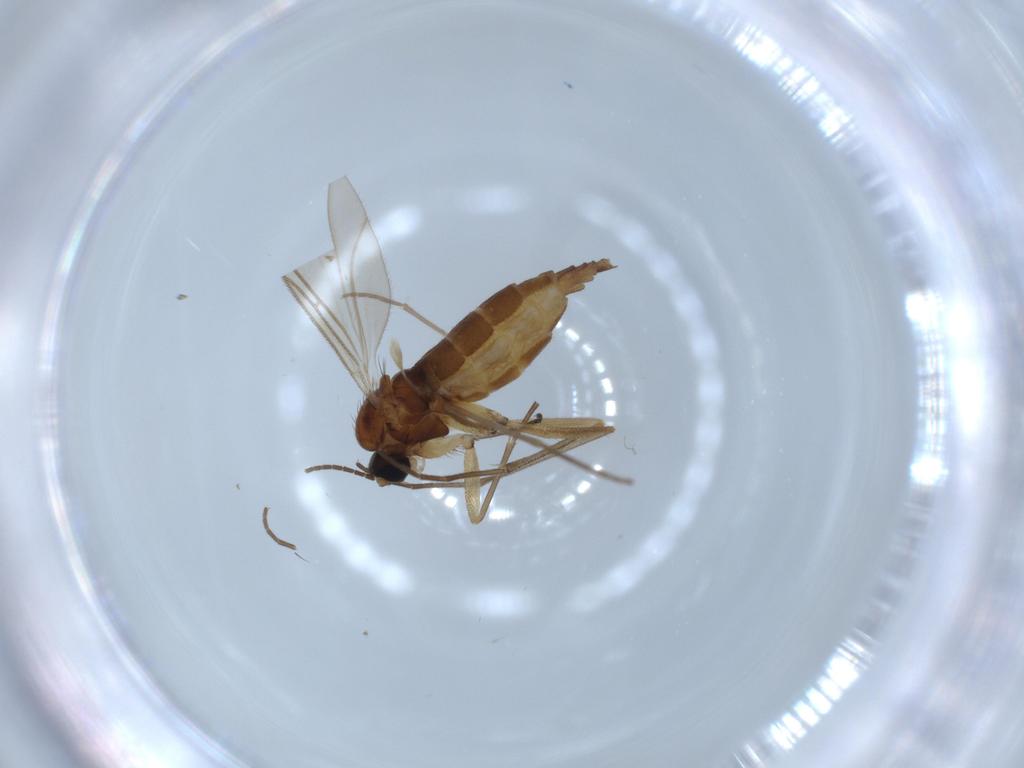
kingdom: Animalia
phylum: Arthropoda
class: Insecta
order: Diptera
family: Sciaridae
